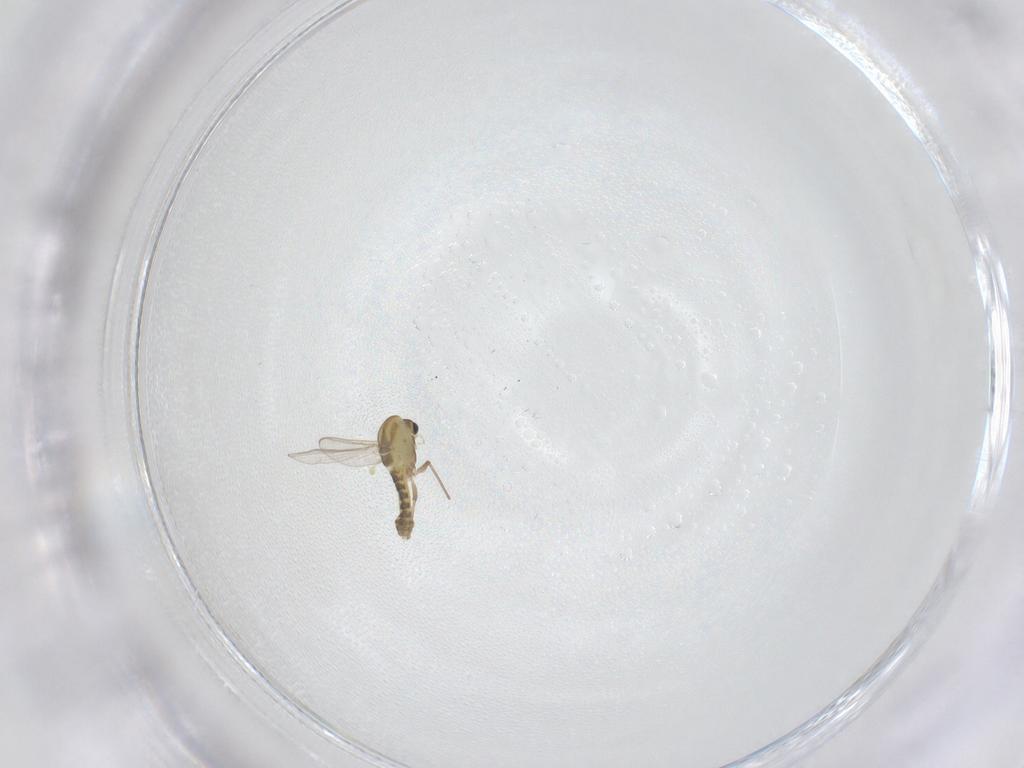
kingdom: Animalia
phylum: Arthropoda
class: Insecta
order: Diptera
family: Chironomidae
